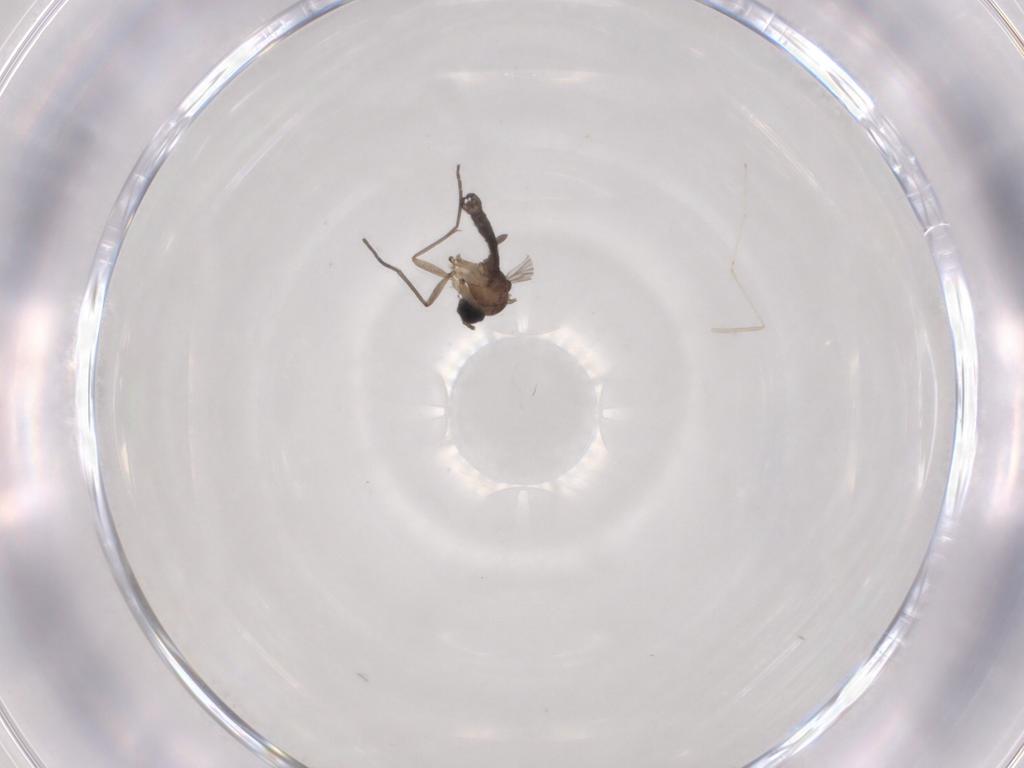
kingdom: Animalia
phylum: Arthropoda
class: Insecta
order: Diptera
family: Sciaridae
